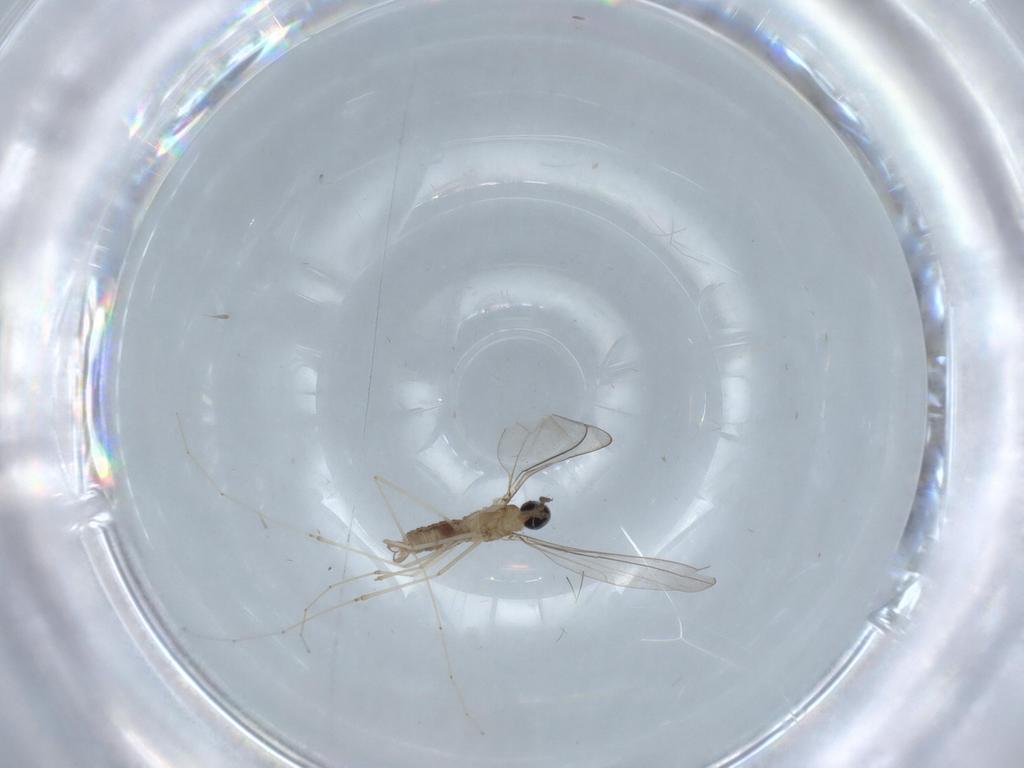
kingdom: Animalia
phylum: Arthropoda
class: Insecta
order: Diptera
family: Cecidomyiidae
